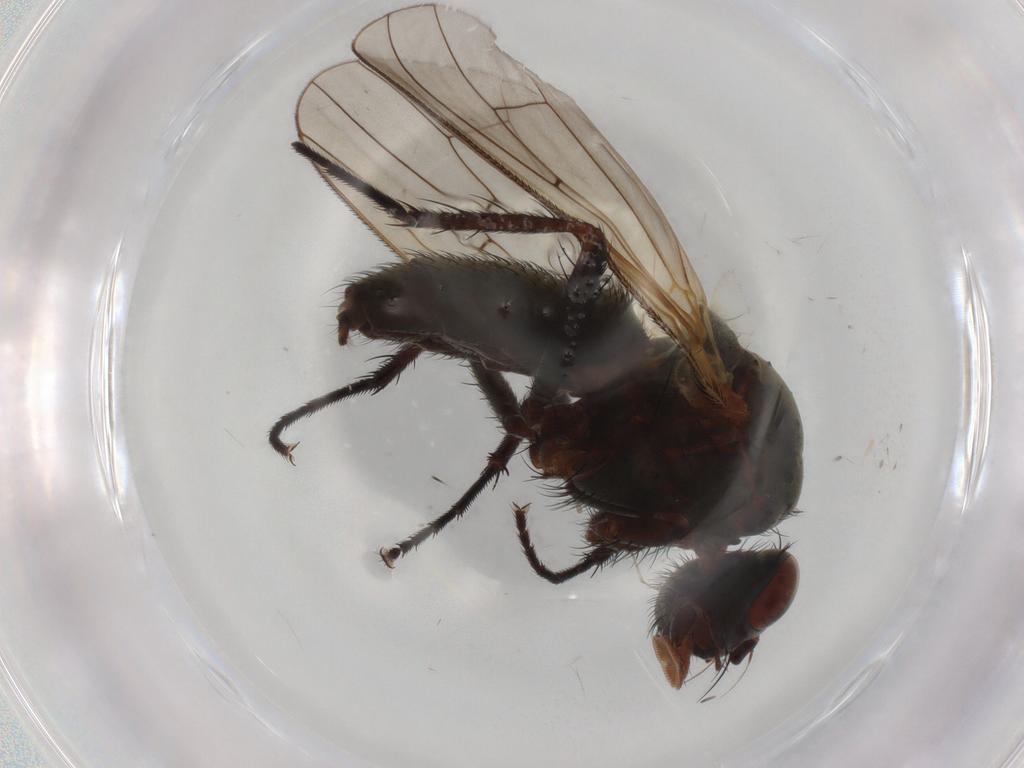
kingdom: Animalia
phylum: Arthropoda
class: Insecta
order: Diptera
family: Anthomyiidae
